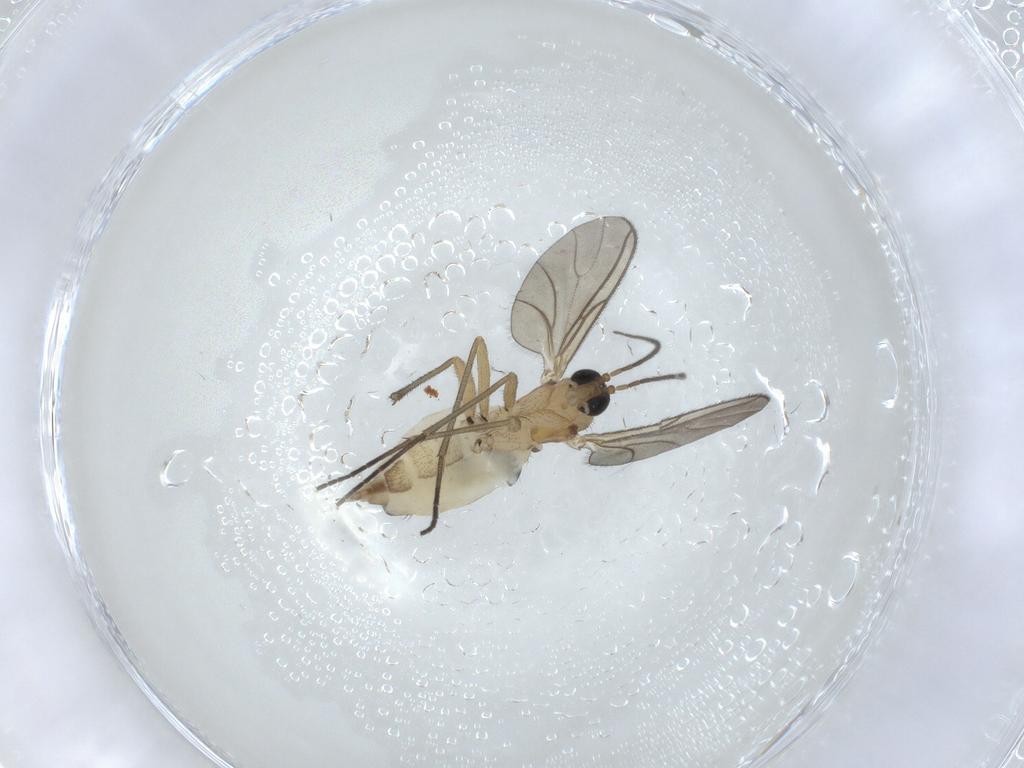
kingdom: Animalia
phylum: Arthropoda
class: Insecta
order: Diptera
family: Sciaridae
